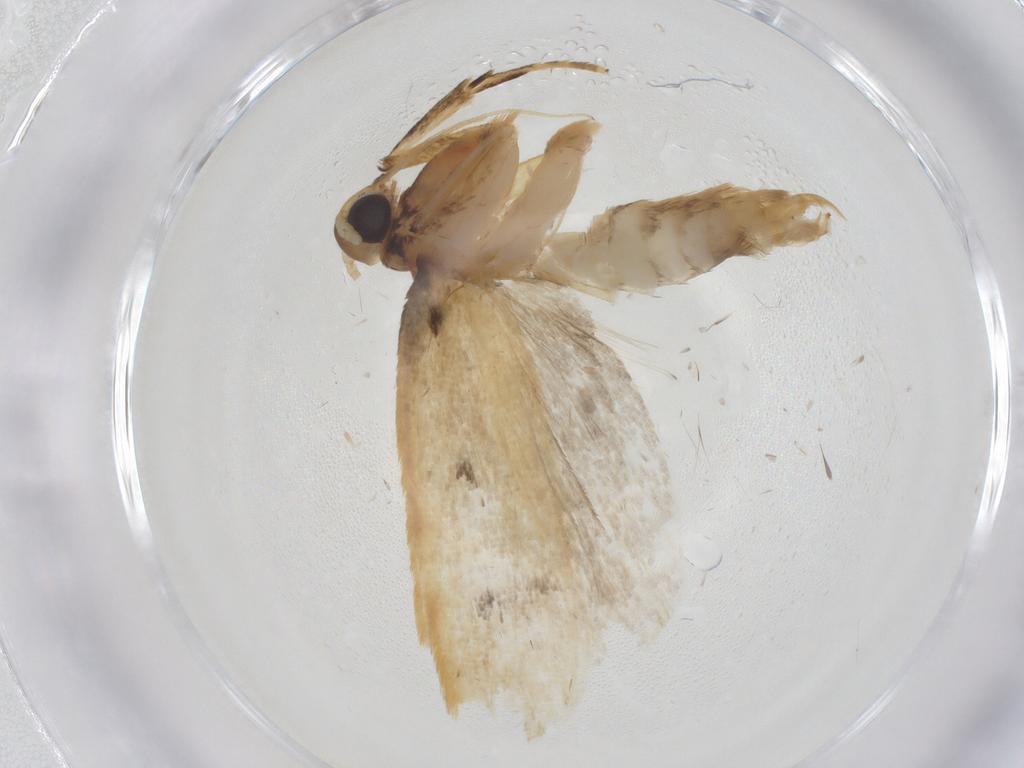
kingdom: Animalia
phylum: Arthropoda
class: Insecta
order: Lepidoptera
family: Lecithoceridae
